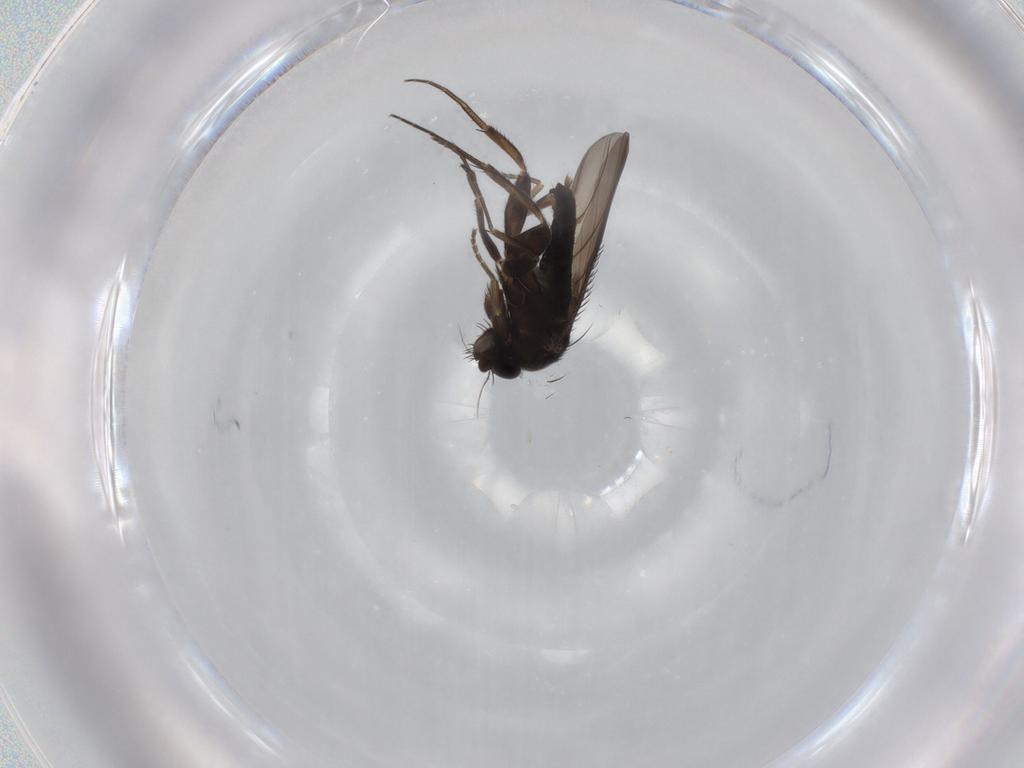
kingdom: Animalia
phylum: Arthropoda
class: Insecta
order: Diptera
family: Phoridae
